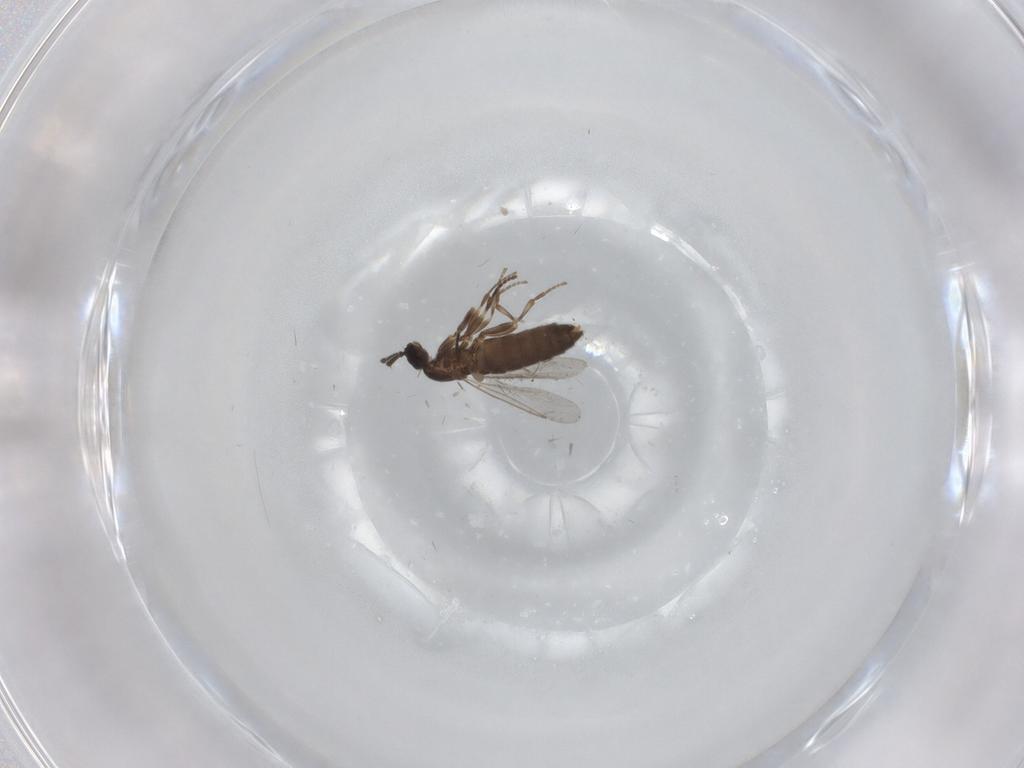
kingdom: Animalia
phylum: Arthropoda
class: Insecta
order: Diptera
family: Scatopsidae
